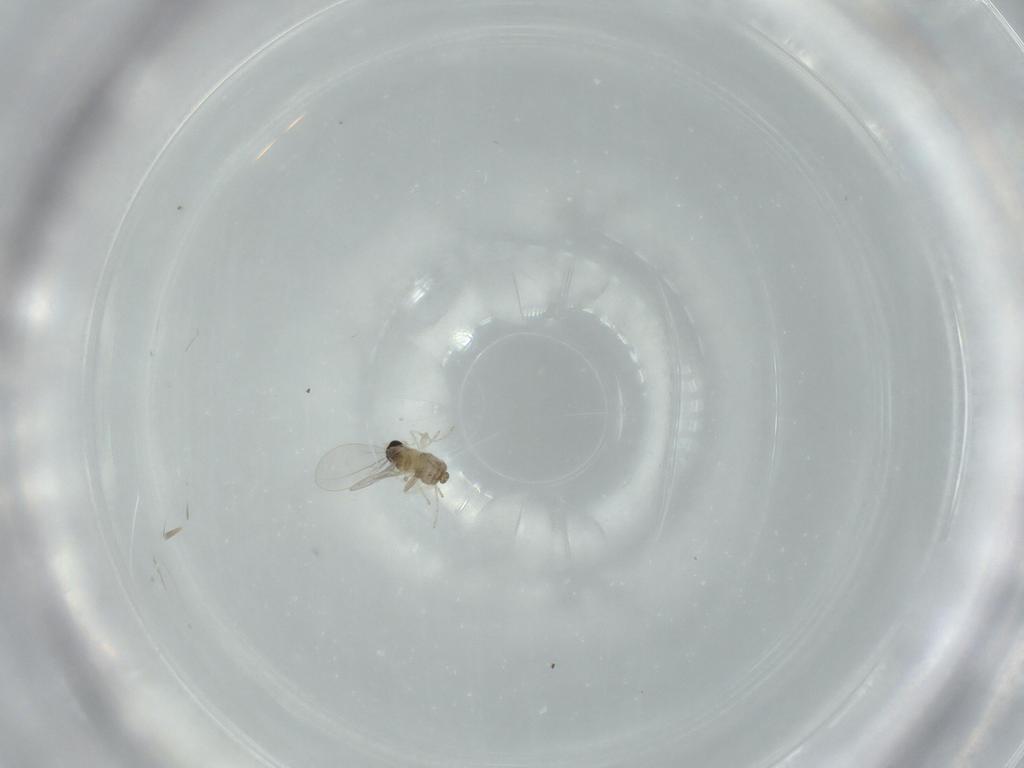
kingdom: Animalia
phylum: Arthropoda
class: Insecta
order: Diptera
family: Cecidomyiidae
